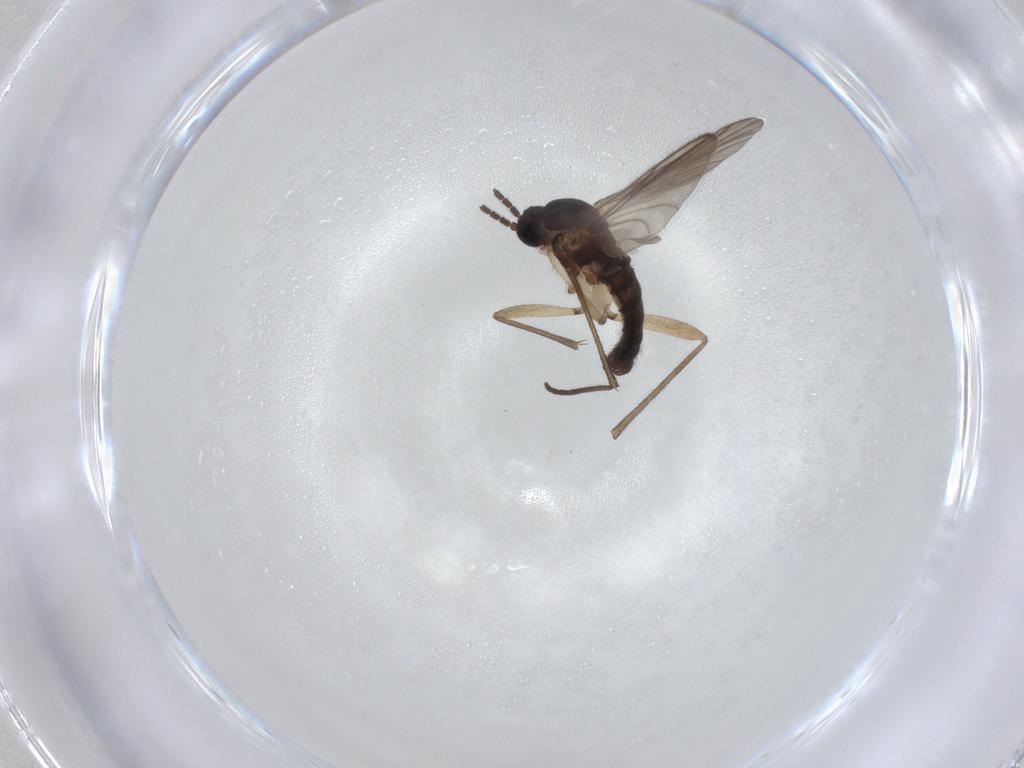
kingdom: Animalia
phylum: Arthropoda
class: Insecta
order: Diptera
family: Sciaridae
